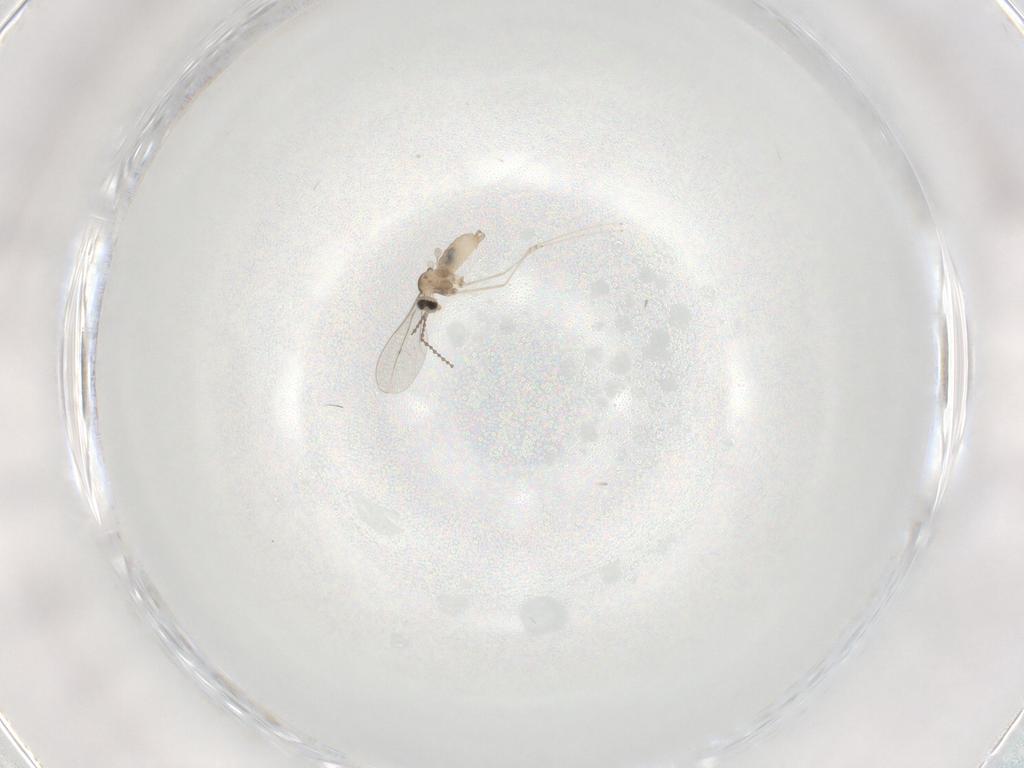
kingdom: Animalia
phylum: Arthropoda
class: Insecta
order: Diptera
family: Cecidomyiidae
